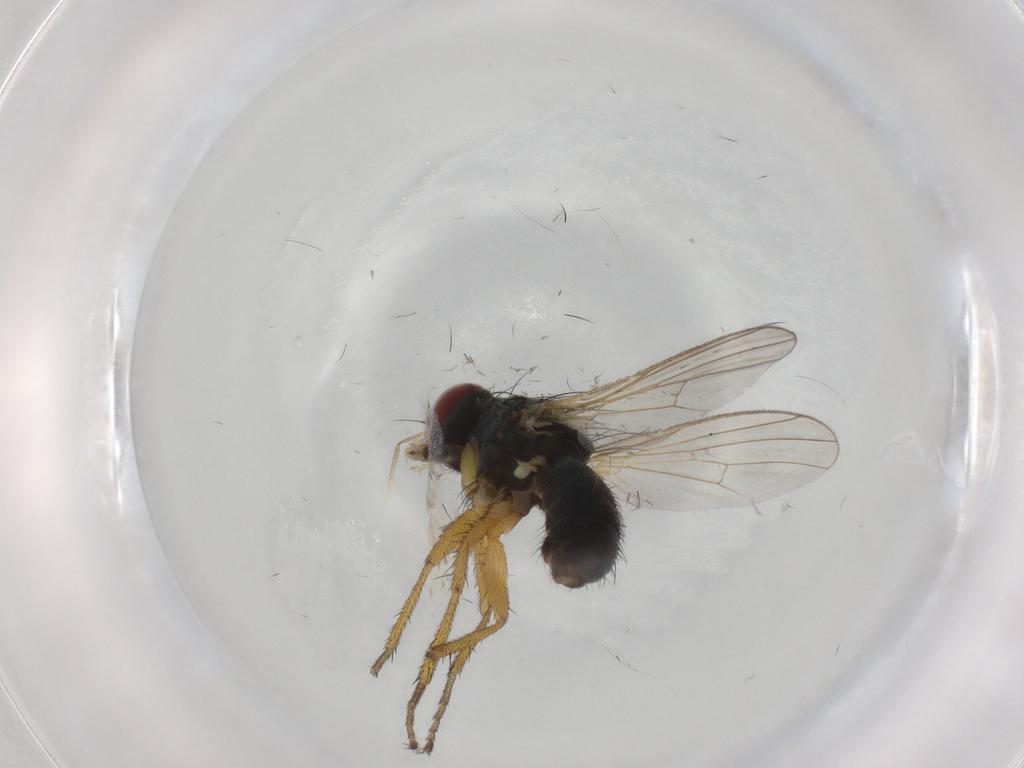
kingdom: Animalia
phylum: Arthropoda
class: Insecta
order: Diptera
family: Muscidae
